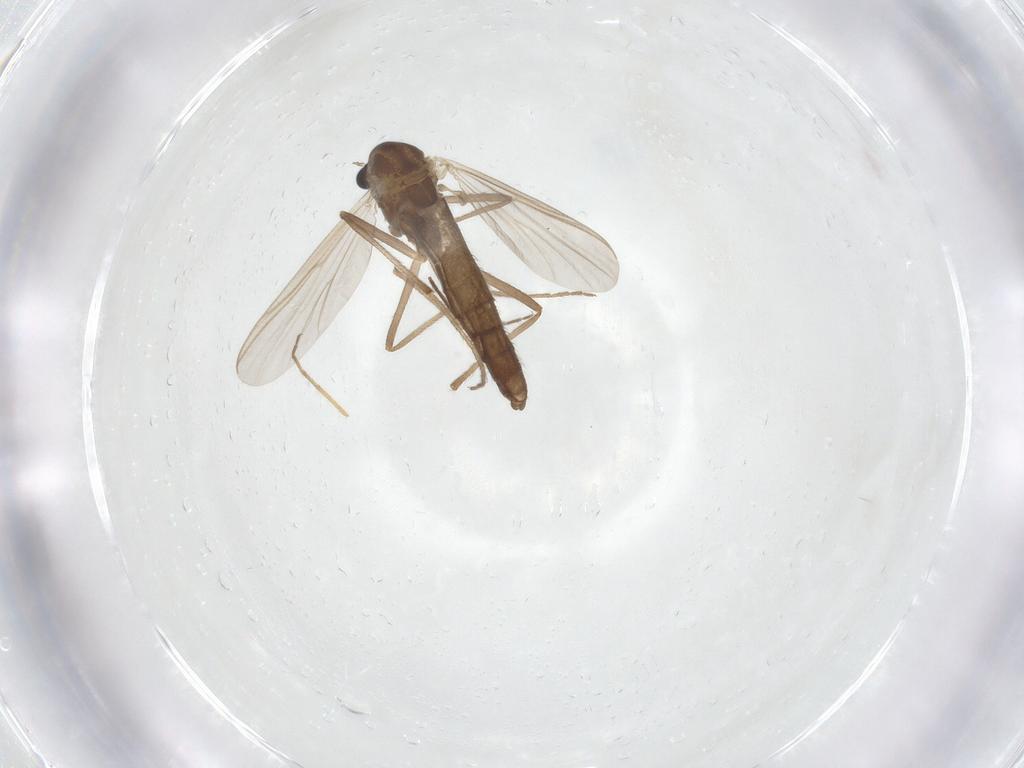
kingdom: Animalia
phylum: Arthropoda
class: Insecta
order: Diptera
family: Chironomidae
